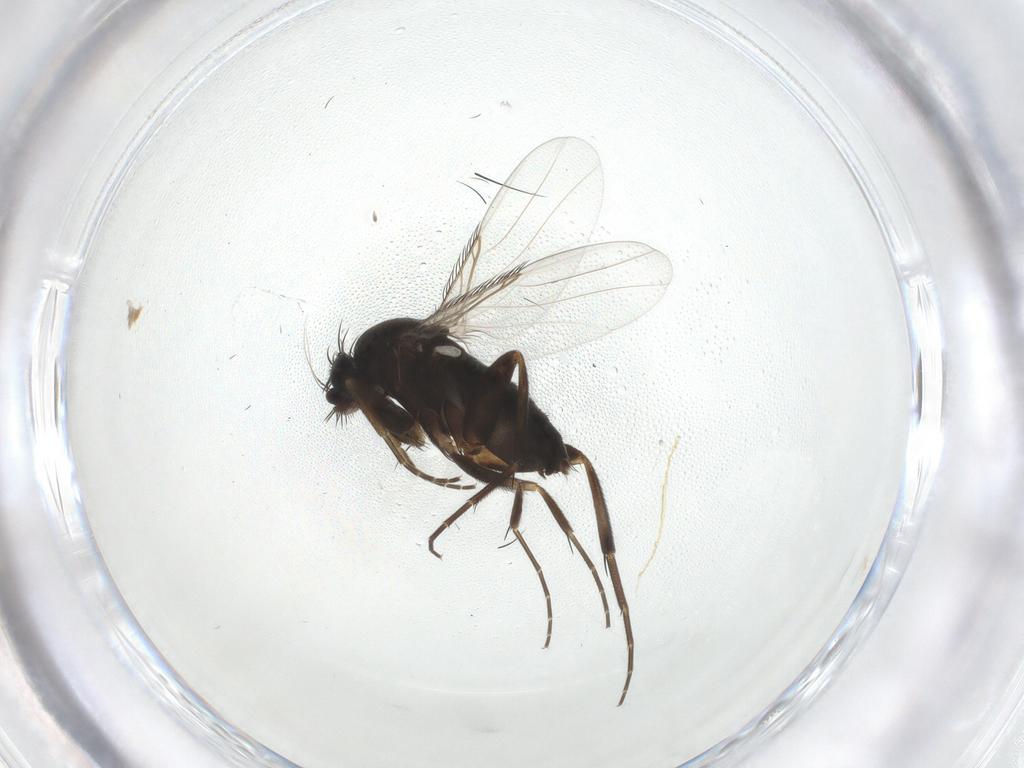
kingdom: Animalia
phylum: Arthropoda
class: Insecta
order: Diptera
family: Phoridae
